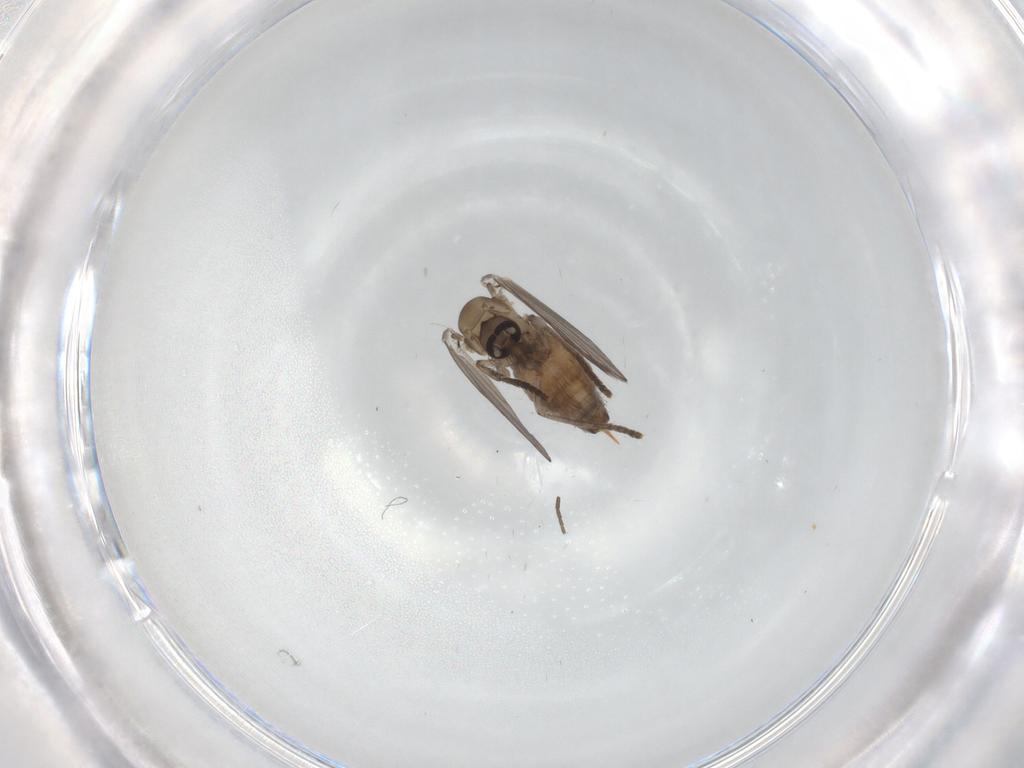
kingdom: Animalia
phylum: Arthropoda
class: Insecta
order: Diptera
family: Psychodidae
